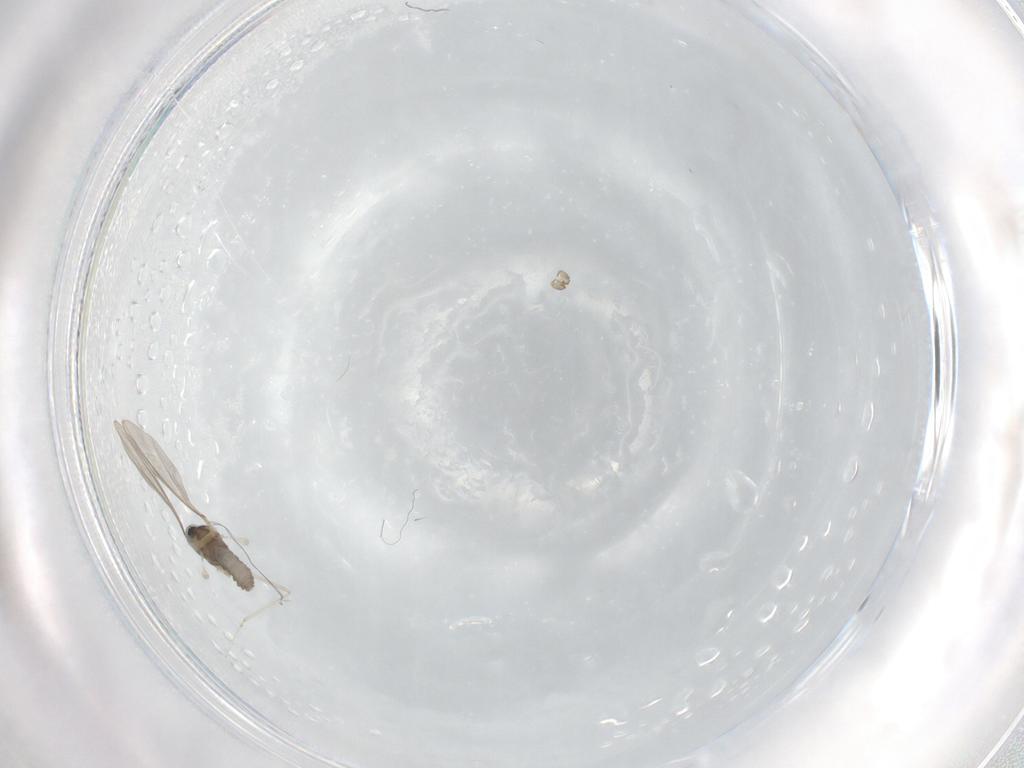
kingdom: Animalia
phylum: Arthropoda
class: Insecta
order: Diptera
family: Cecidomyiidae
